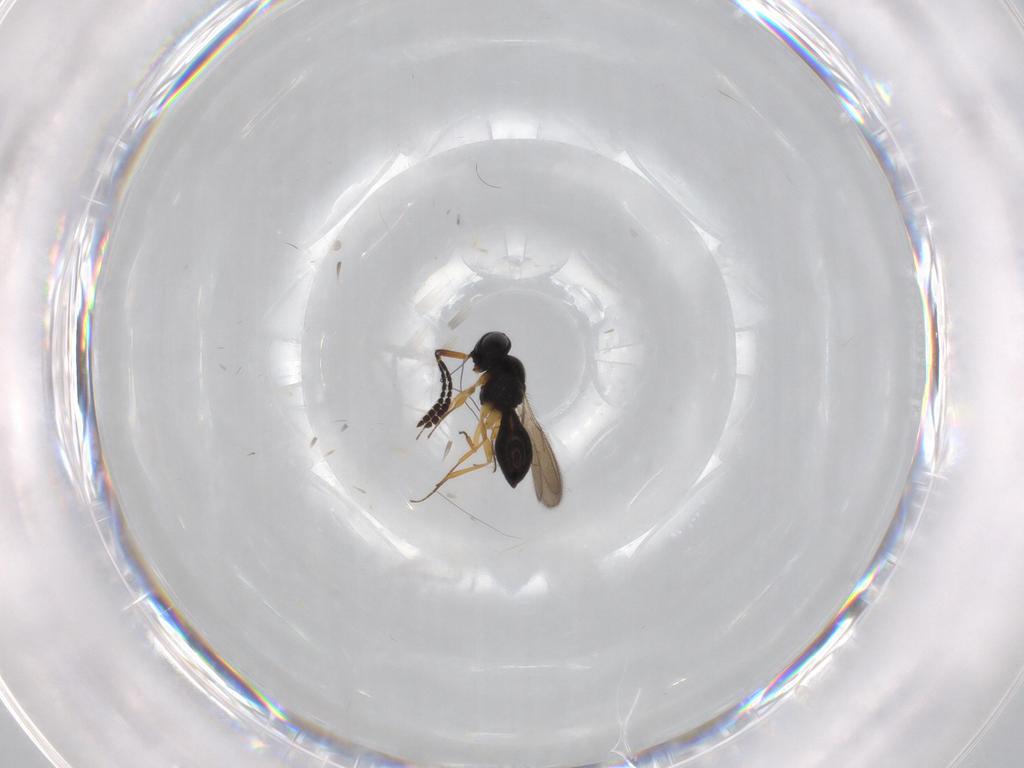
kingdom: Animalia
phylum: Arthropoda
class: Insecta
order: Hymenoptera
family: Scelionidae
